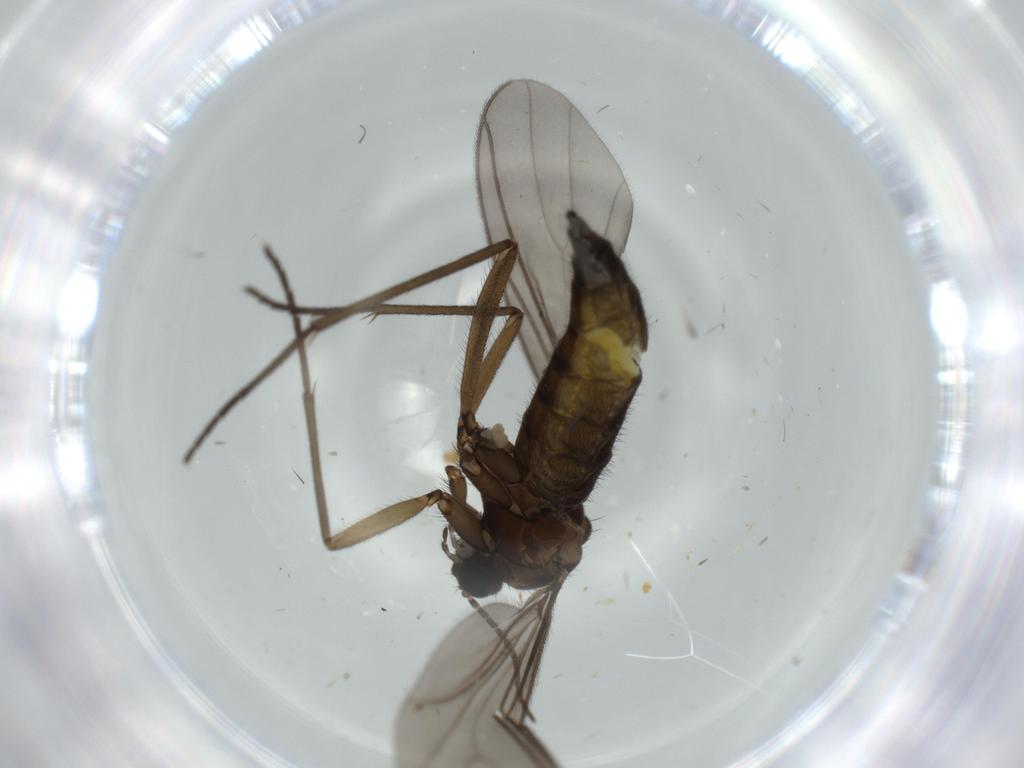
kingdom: Animalia
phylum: Arthropoda
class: Insecta
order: Diptera
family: Sciaridae
